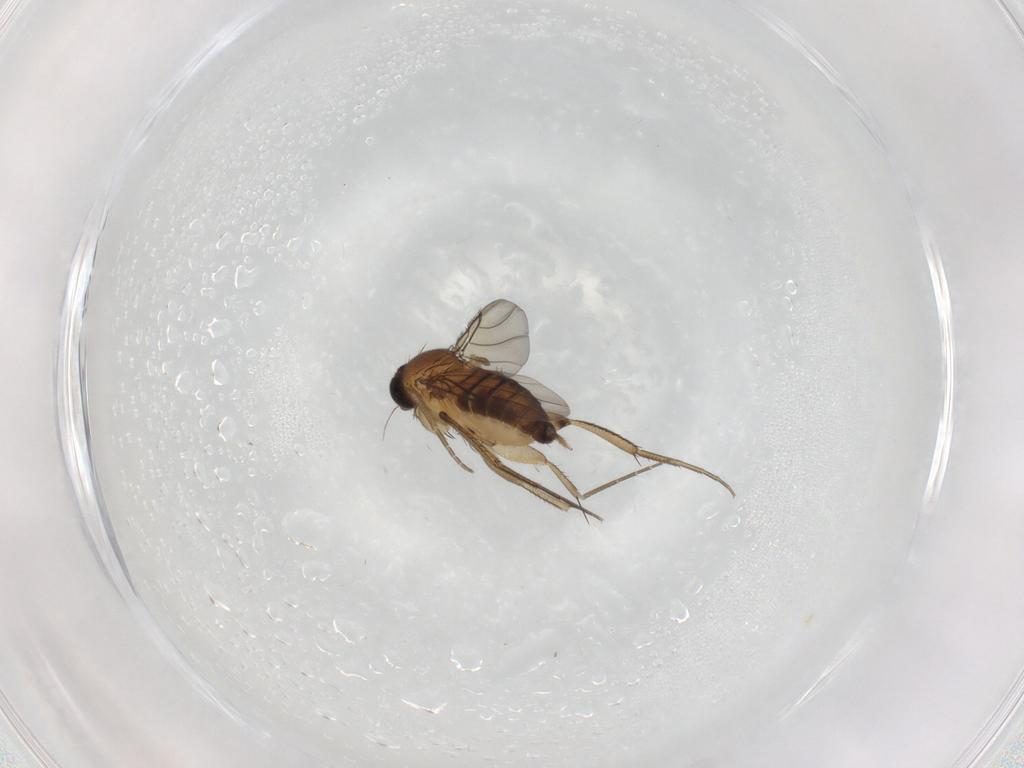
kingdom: Animalia
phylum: Arthropoda
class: Insecta
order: Diptera
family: Phoridae
